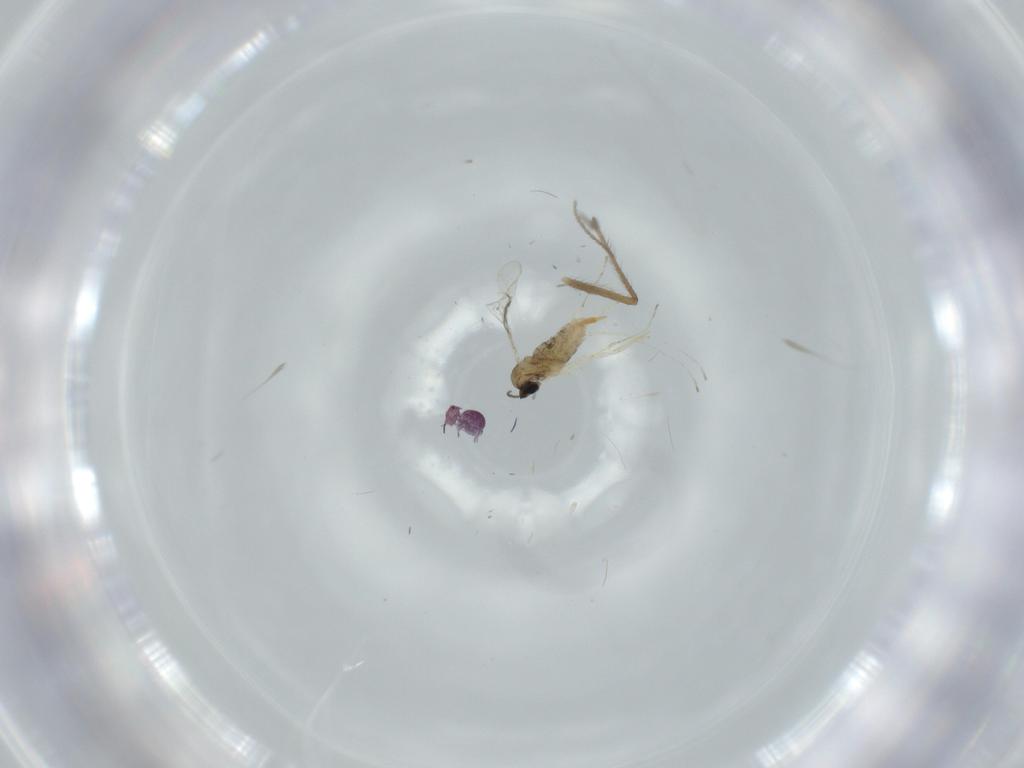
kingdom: Animalia
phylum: Arthropoda
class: Insecta
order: Diptera
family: Cecidomyiidae
